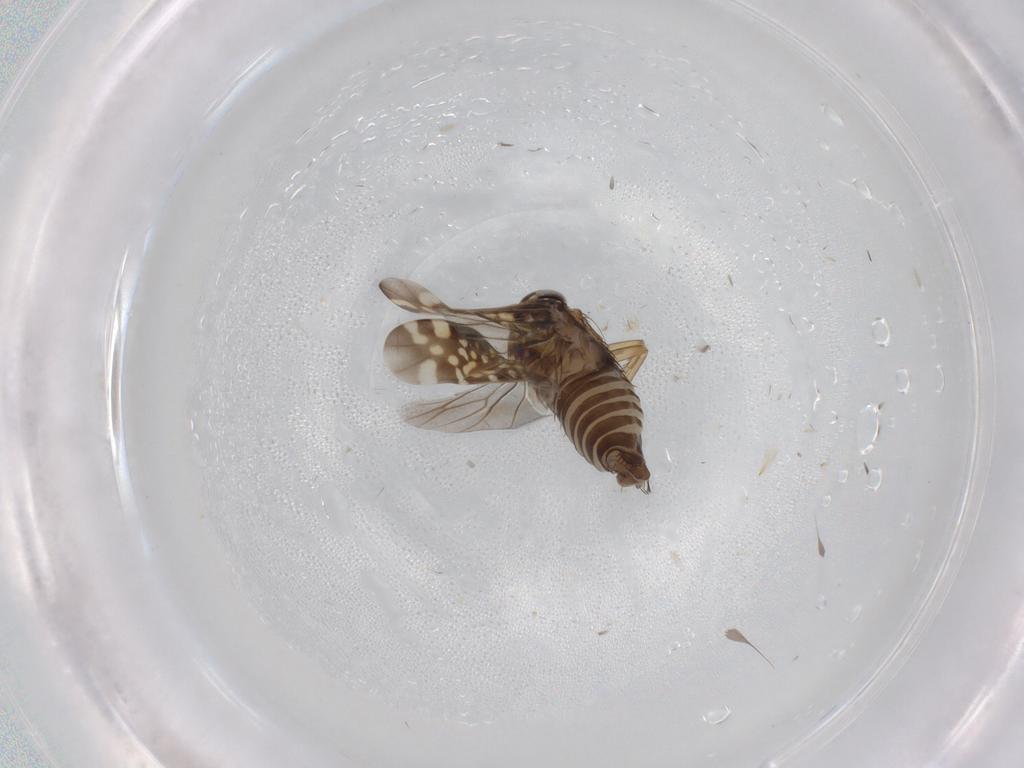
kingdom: Animalia
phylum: Arthropoda
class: Insecta
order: Hemiptera
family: Cicadellidae
